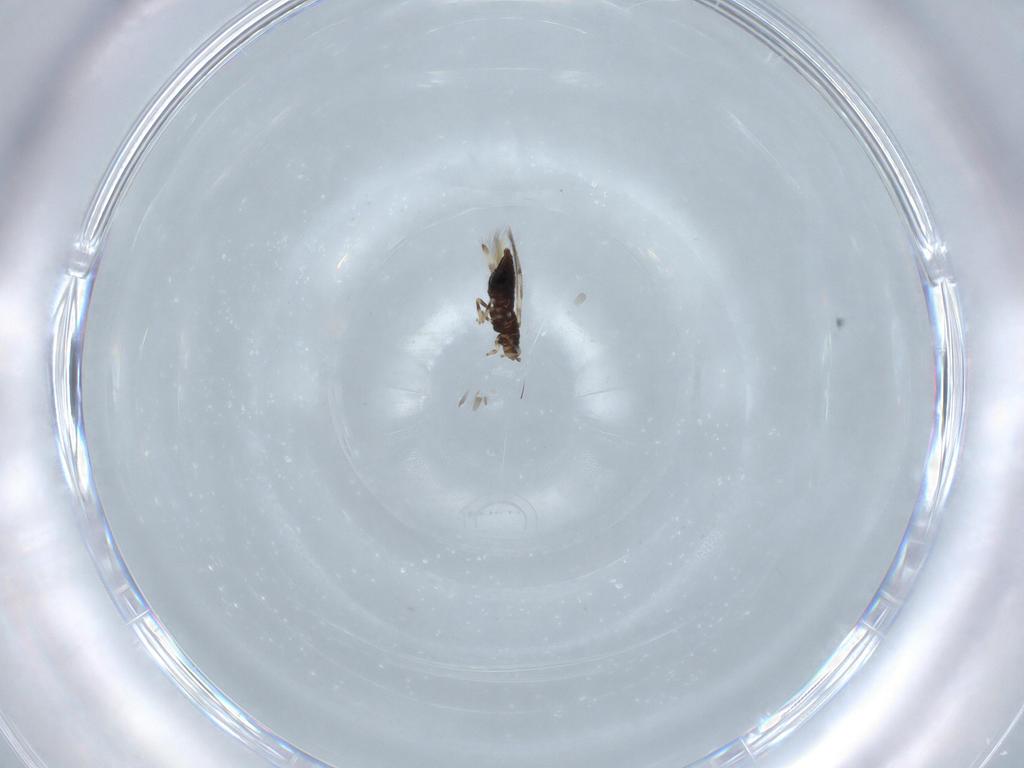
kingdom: Animalia
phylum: Arthropoda
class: Insecta
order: Thysanoptera
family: Thripidae
